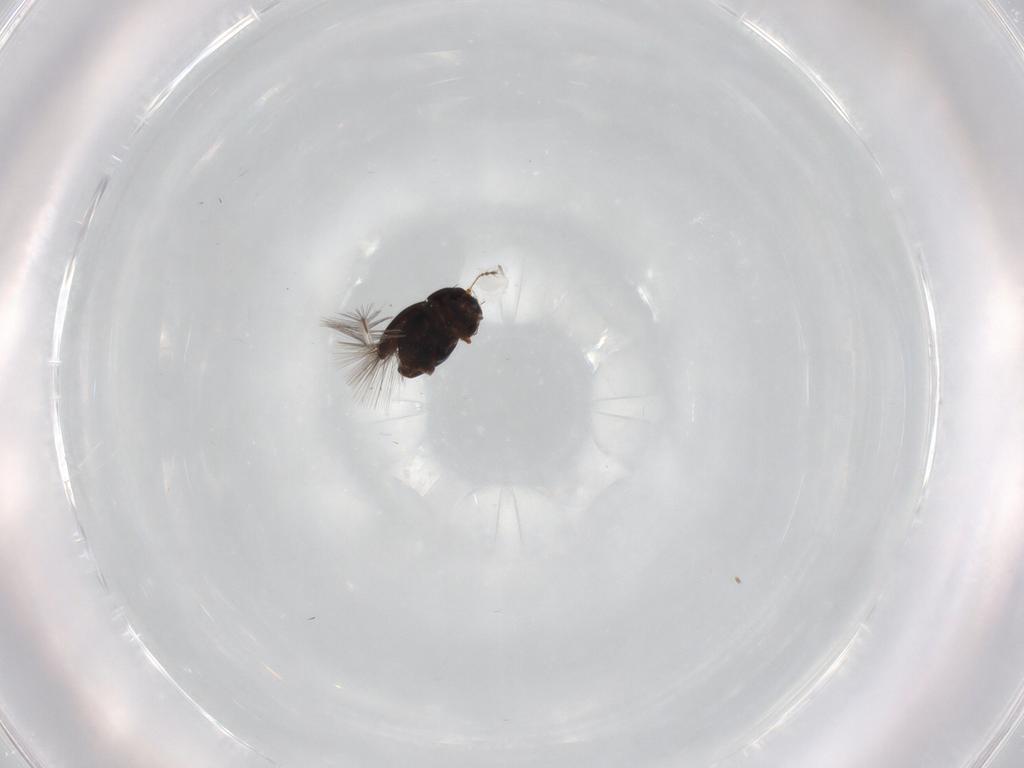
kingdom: Animalia
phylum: Arthropoda
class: Insecta
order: Coleoptera
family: Ptiliidae
